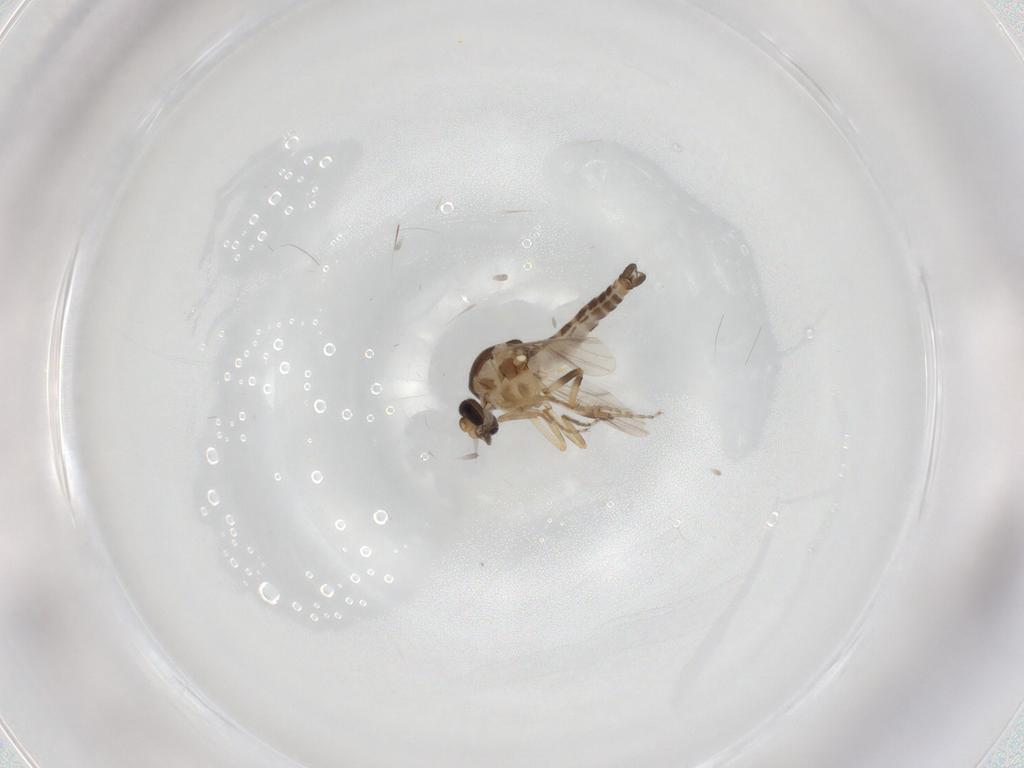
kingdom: Animalia
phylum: Arthropoda
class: Insecta
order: Diptera
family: Ceratopogonidae
